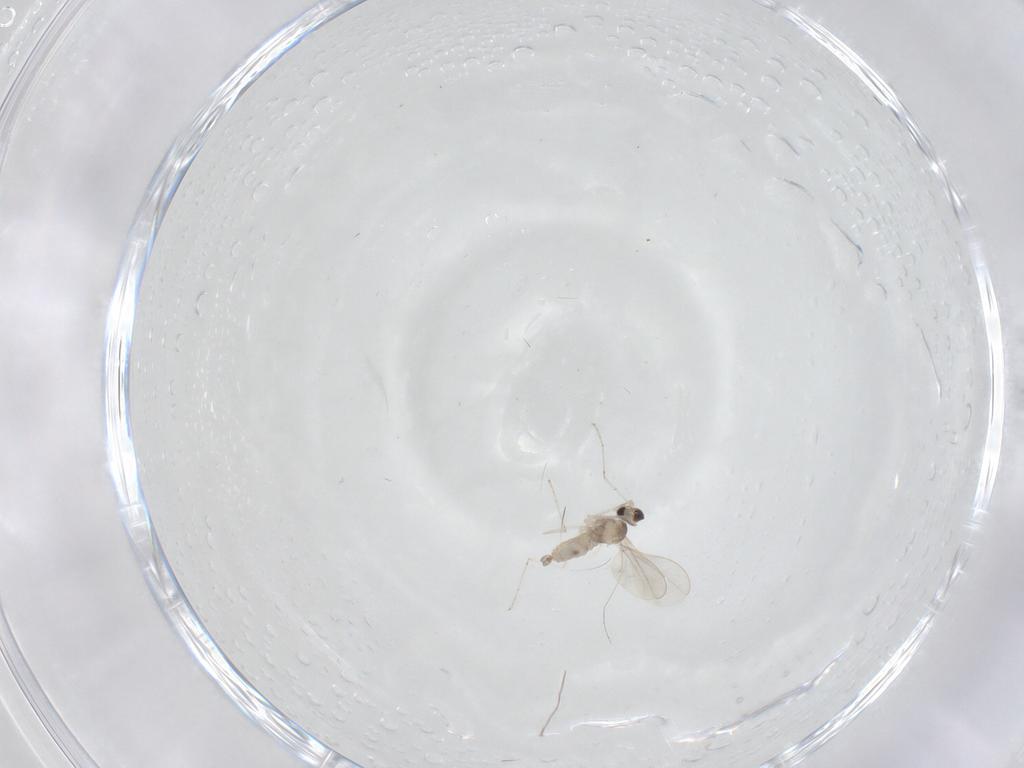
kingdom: Animalia
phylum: Arthropoda
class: Insecta
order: Diptera
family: Cecidomyiidae
